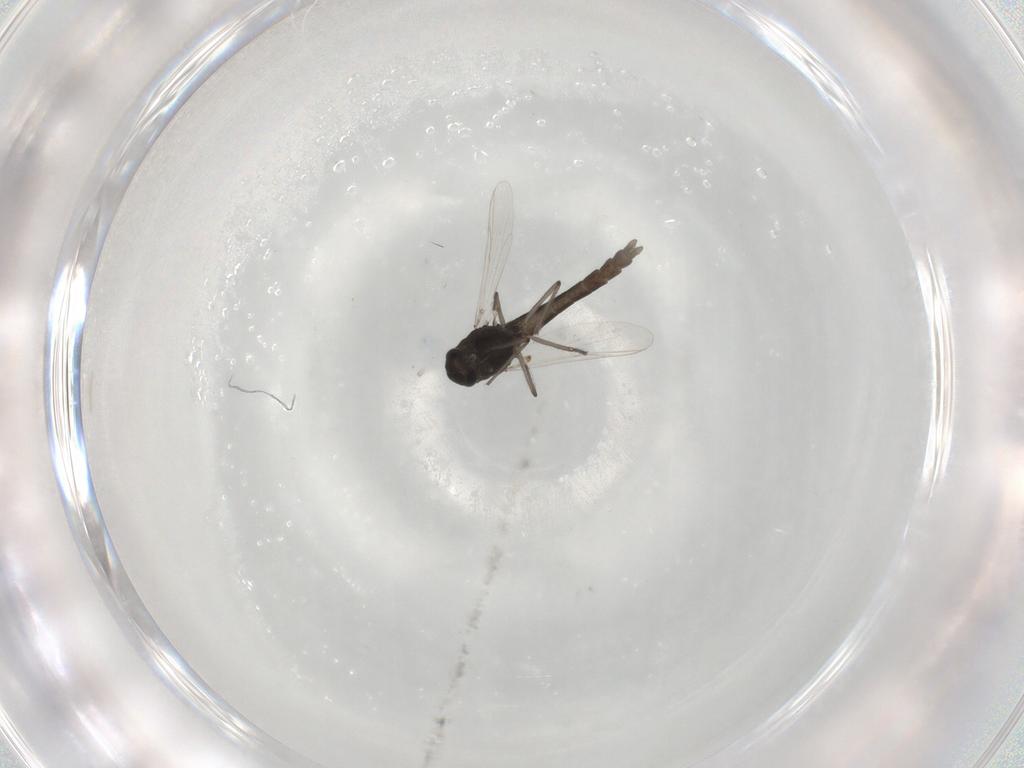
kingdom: Animalia
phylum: Arthropoda
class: Insecta
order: Diptera
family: Chironomidae
